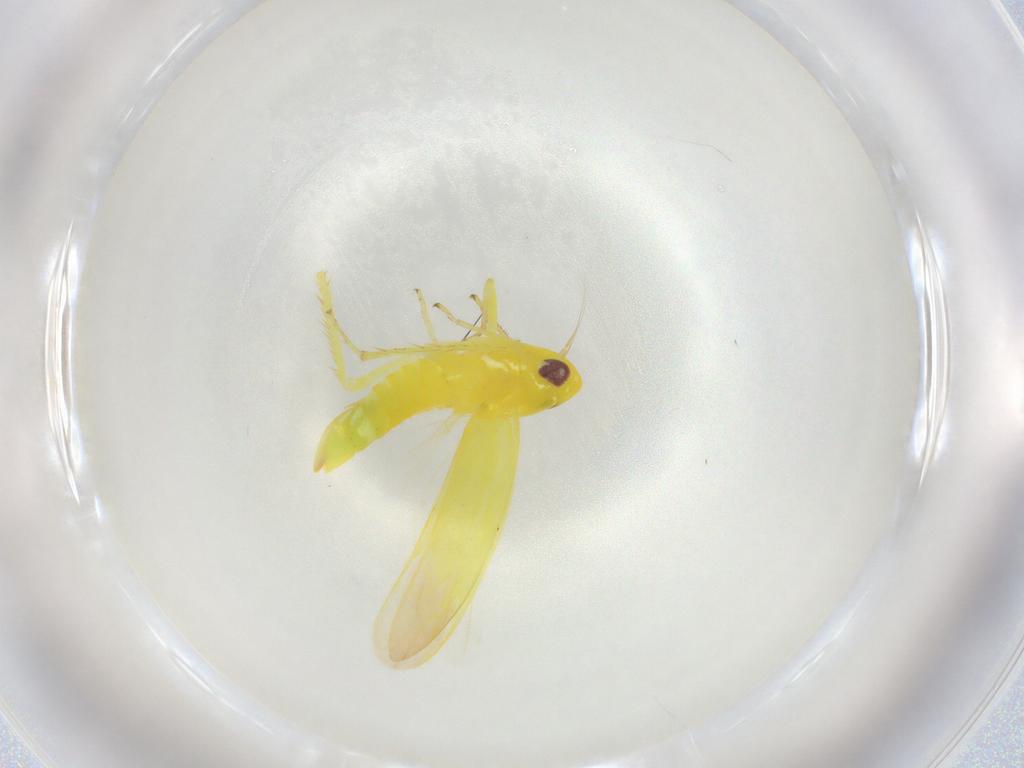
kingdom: Animalia
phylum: Arthropoda
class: Insecta
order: Hemiptera
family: Cicadellidae
